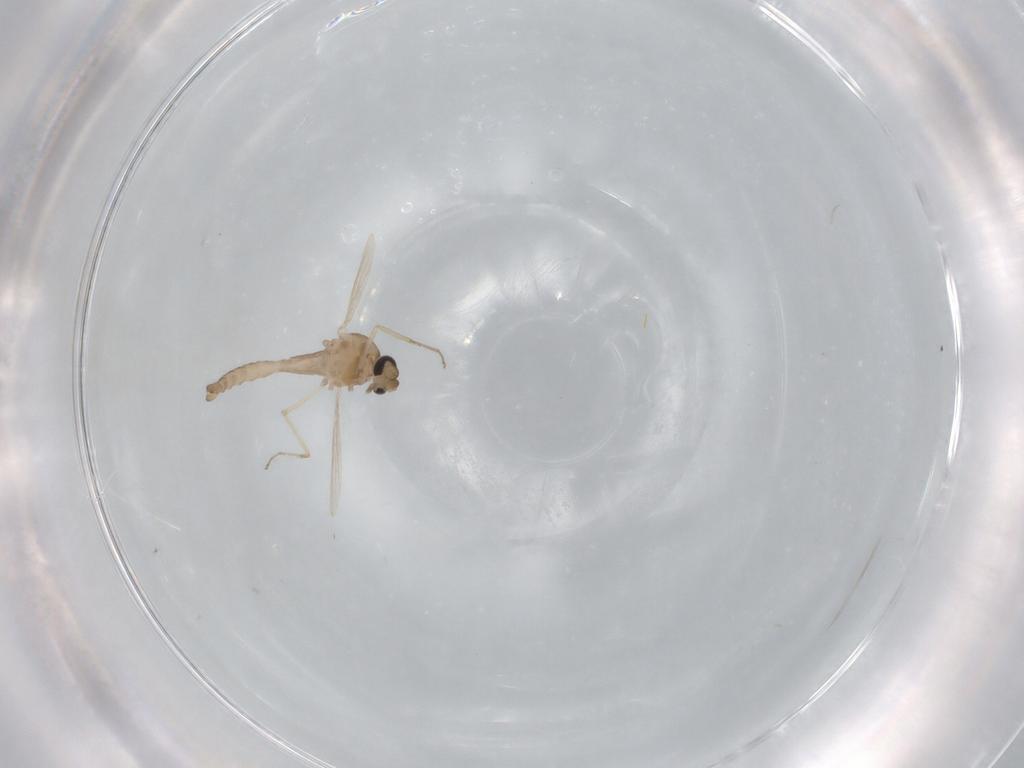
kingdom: Animalia
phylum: Arthropoda
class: Insecta
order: Diptera
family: Ceratopogonidae
